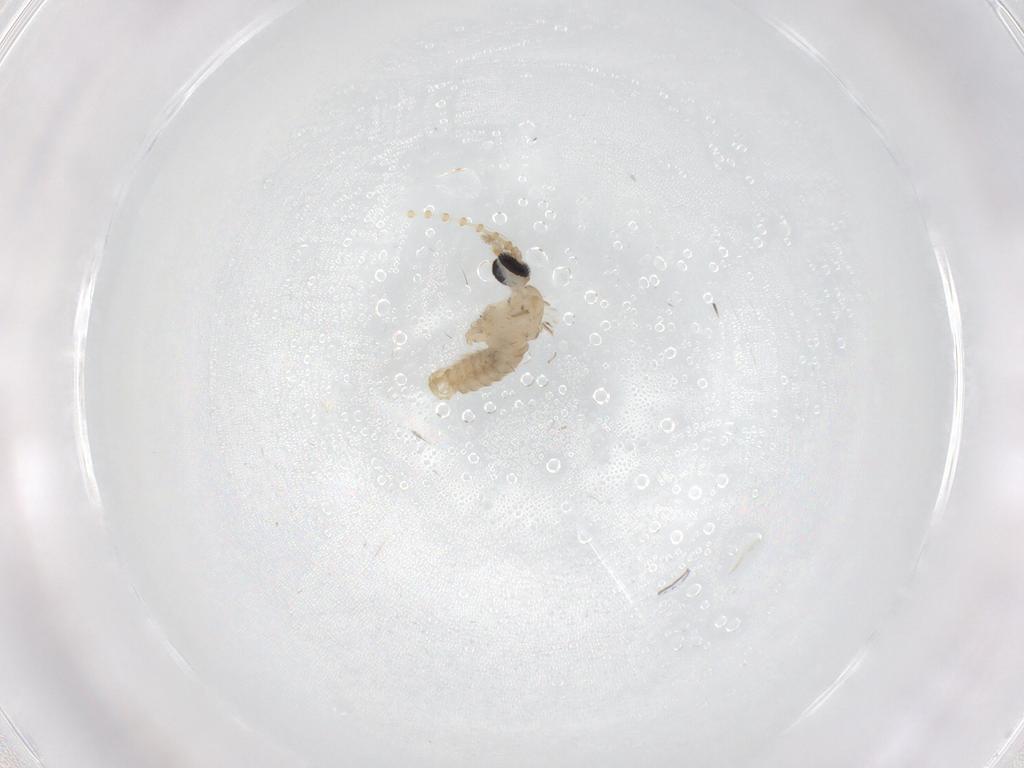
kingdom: Animalia
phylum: Arthropoda
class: Insecta
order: Diptera
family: Psychodidae
